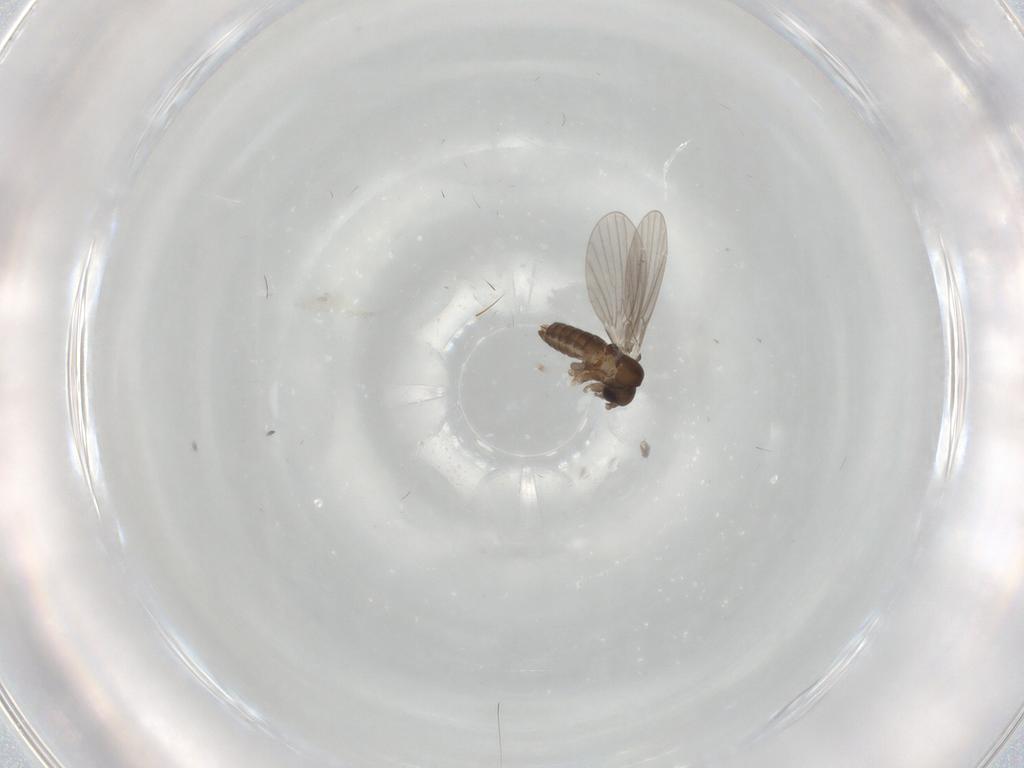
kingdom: Animalia
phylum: Arthropoda
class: Insecta
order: Diptera
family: Cecidomyiidae
